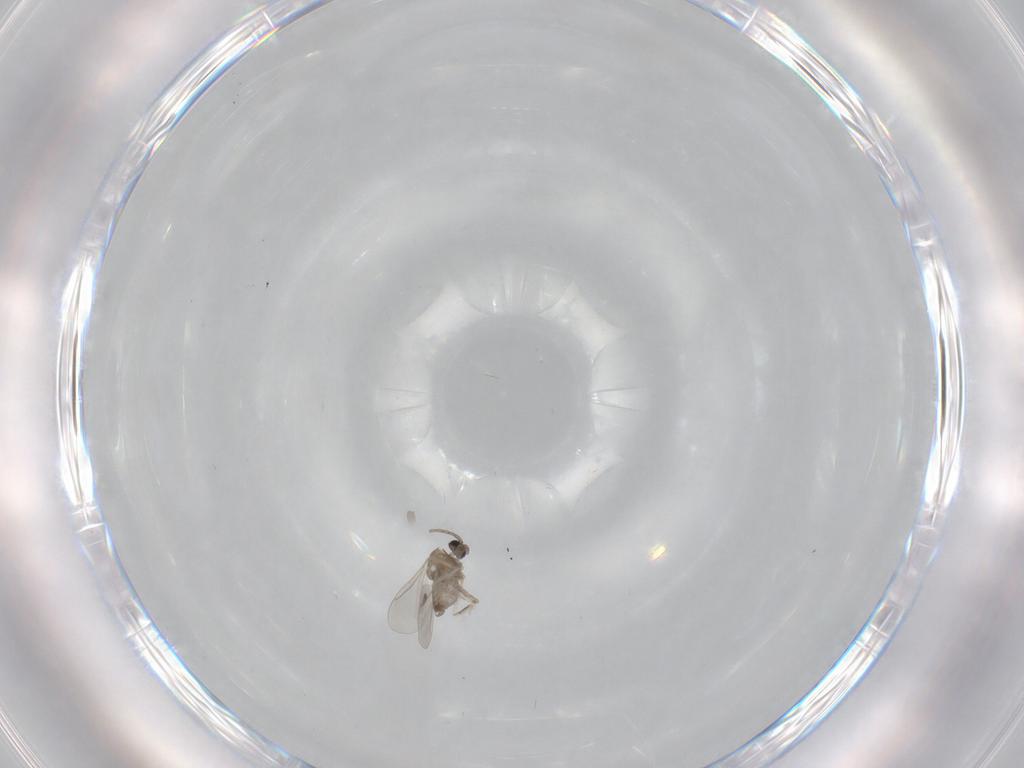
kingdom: Animalia
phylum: Arthropoda
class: Insecta
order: Diptera
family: Cecidomyiidae
